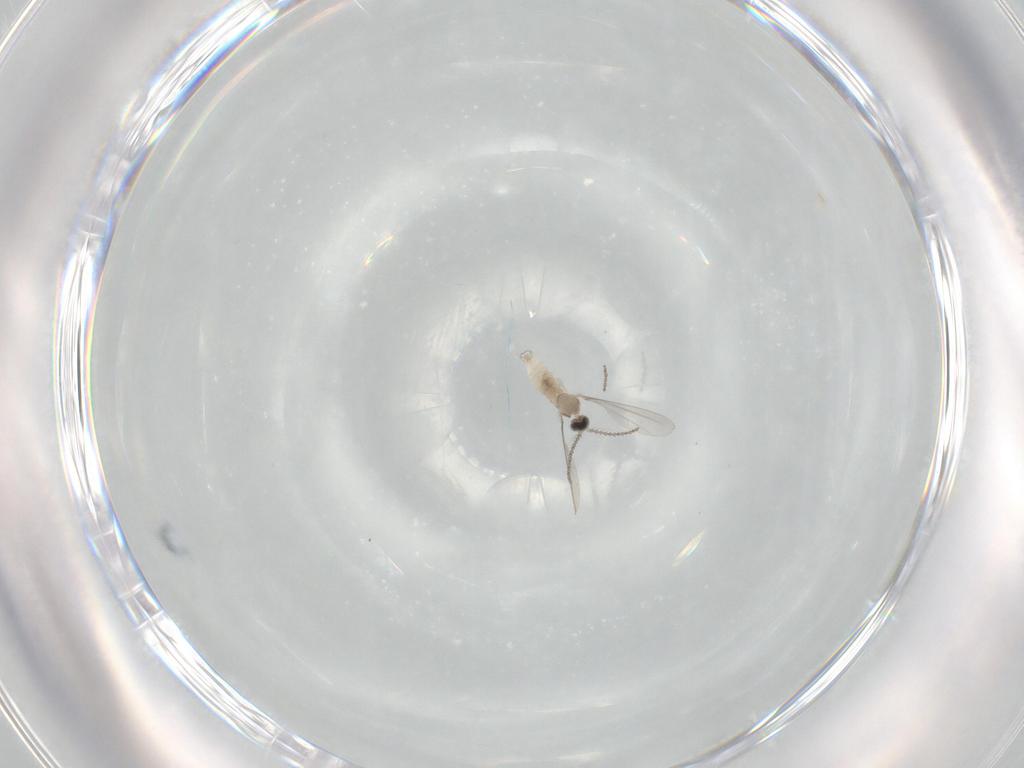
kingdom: Animalia
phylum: Arthropoda
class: Insecta
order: Diptera
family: Cecidomyiidae
